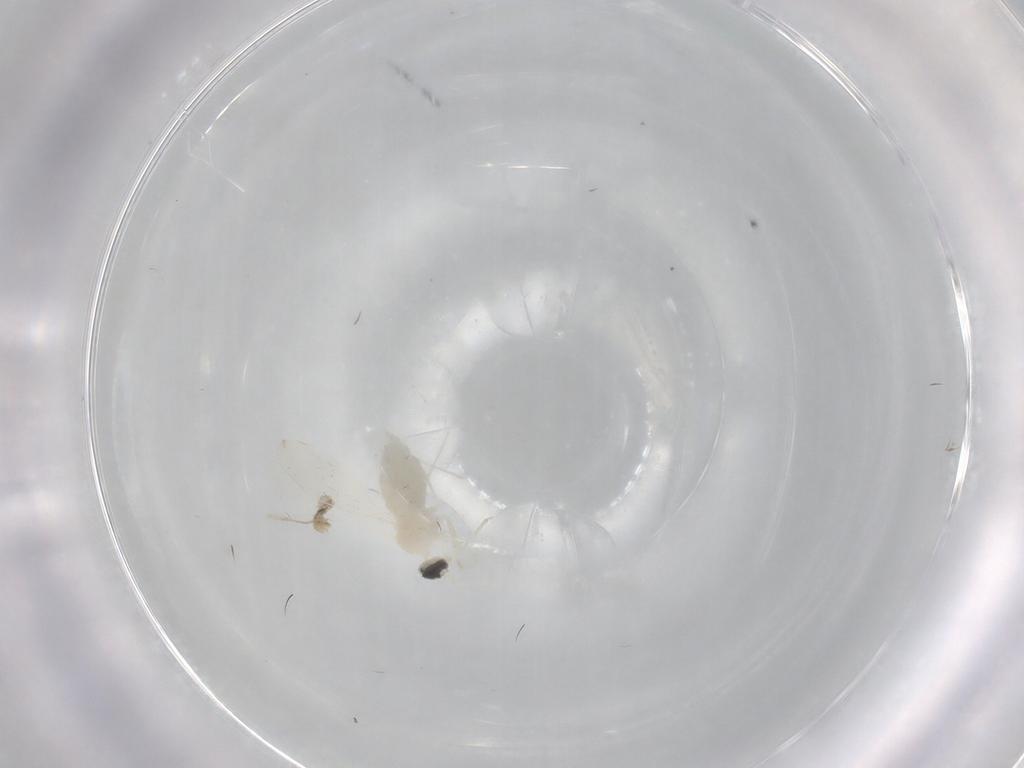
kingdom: Animalia
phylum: Arthropoda
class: Insecta
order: Diptera
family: Cecidomyiidae
